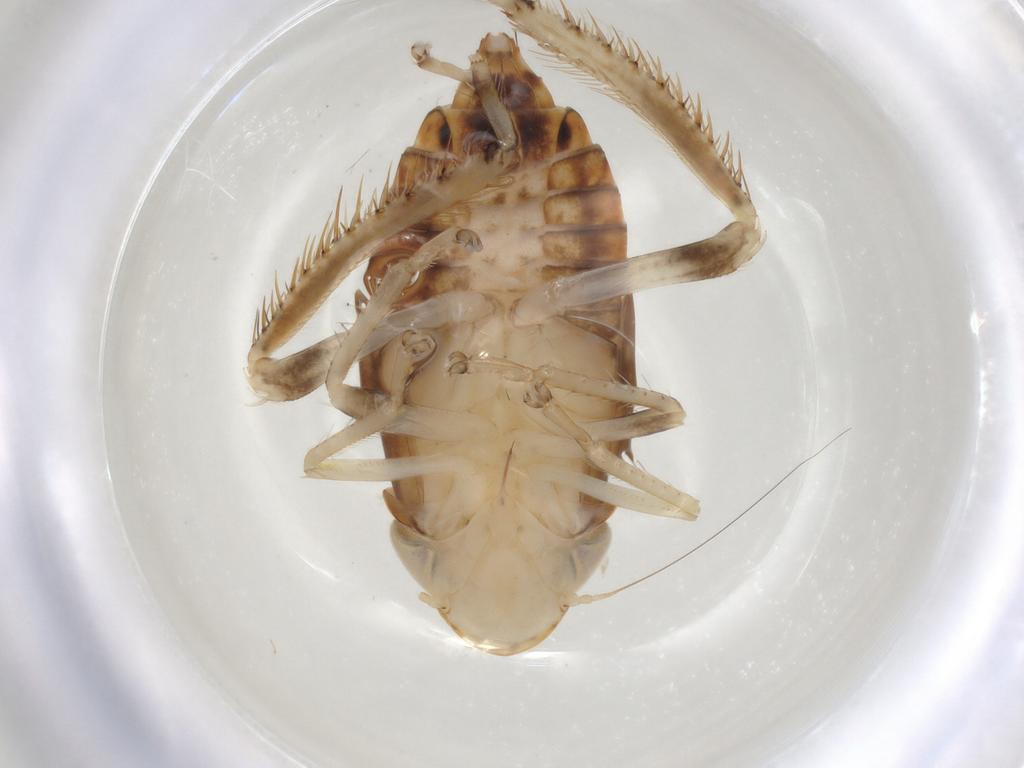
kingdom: Animalia
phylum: Arthropoda
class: Insecta
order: Hemiptera
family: Cicadellidae
